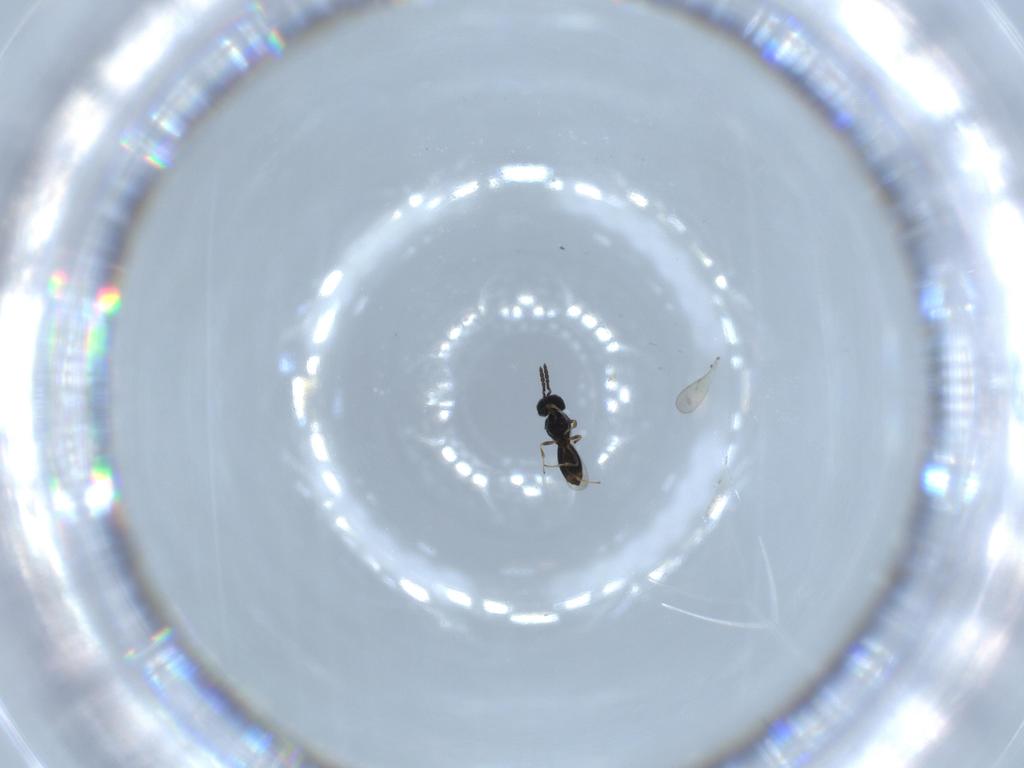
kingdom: Animalia
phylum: Arthropoda
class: Insecta
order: Hymenoptera
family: Scelionidae
